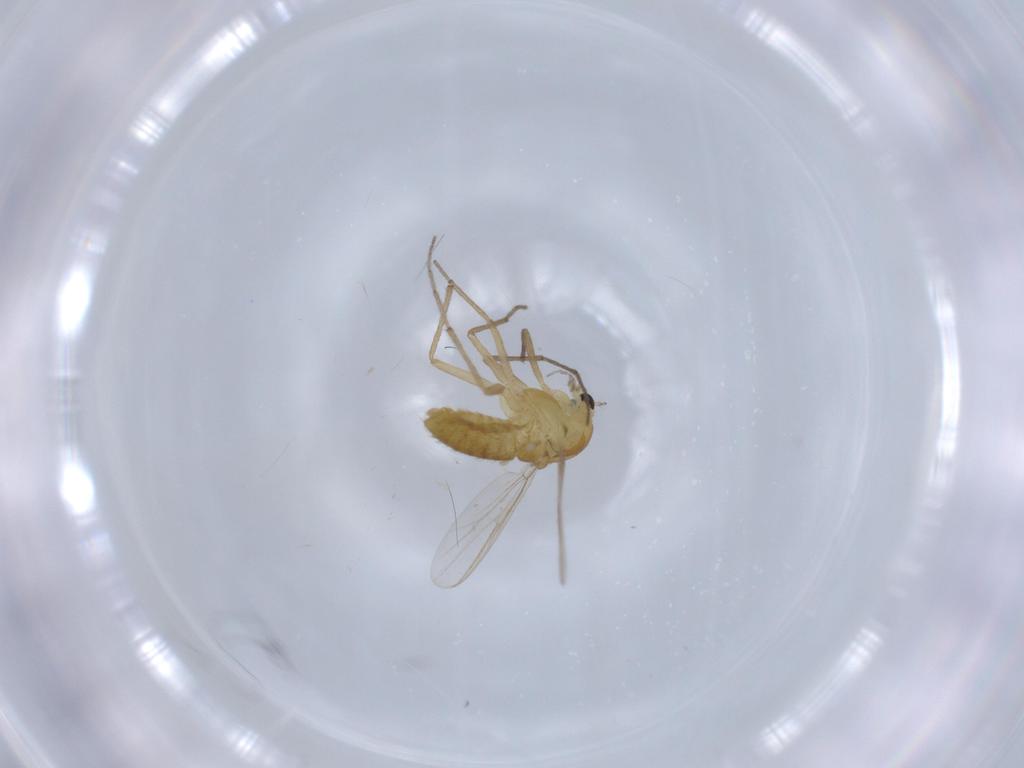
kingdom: Animalia
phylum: Arthropoda
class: Insecta
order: Diptera
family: Chironomidae
